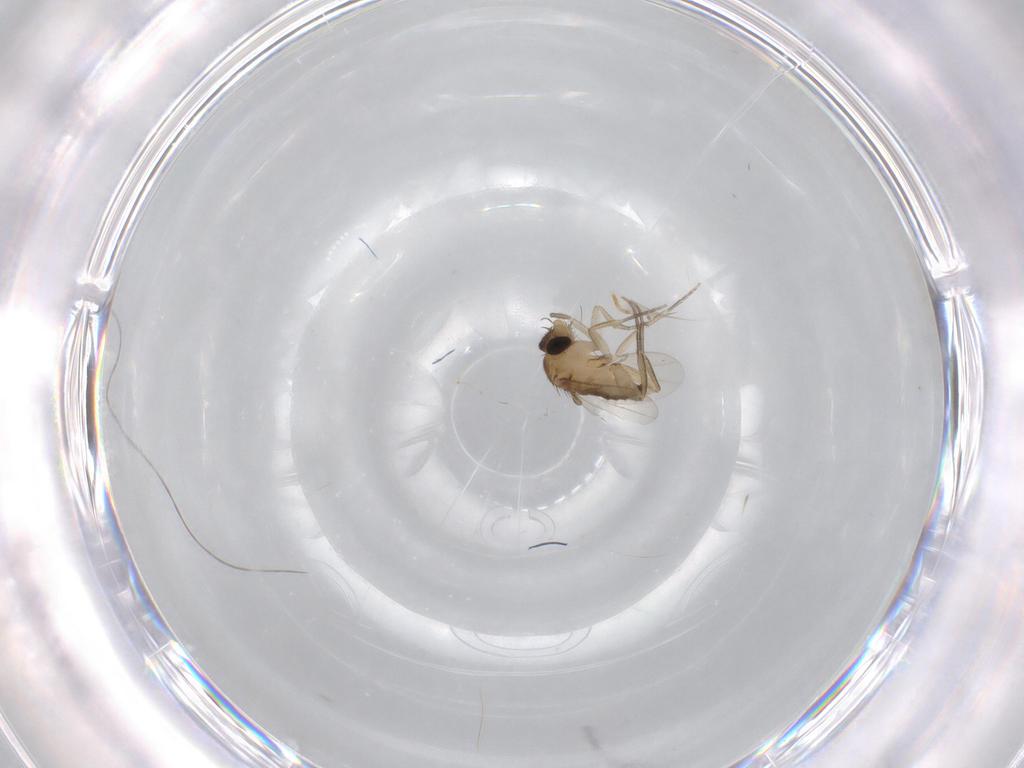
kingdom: Animalia
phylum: Arthropoda
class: Insecta
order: Diptera
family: Phoridae
